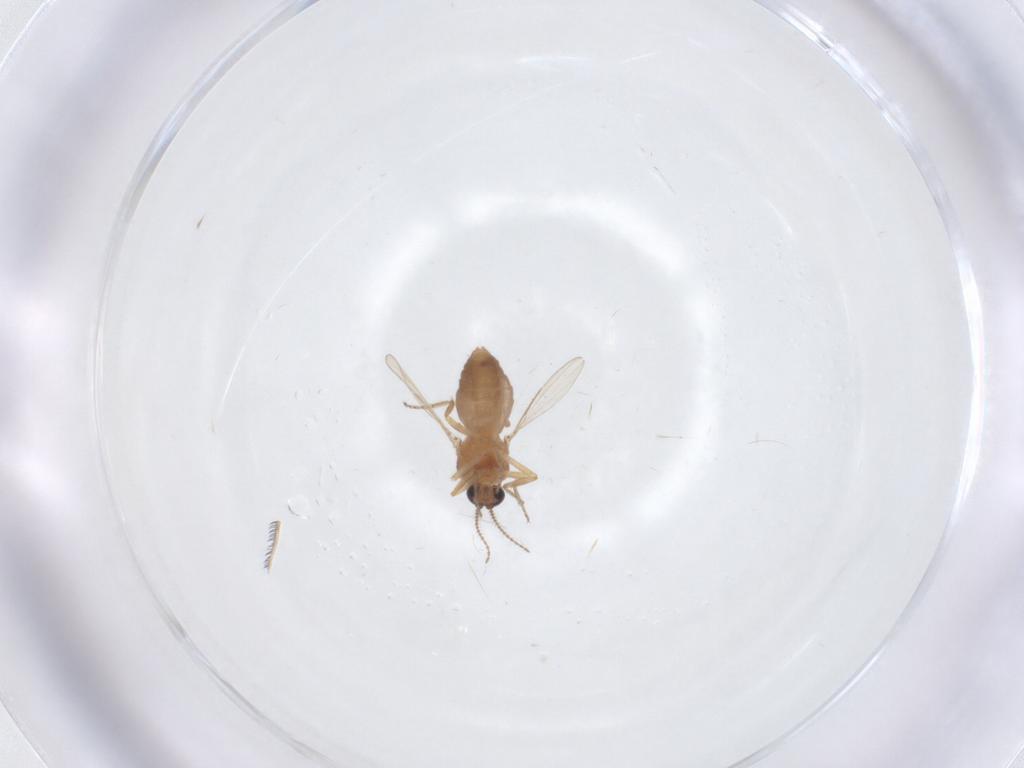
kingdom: Animalia
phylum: Arthropoda
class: Insecta
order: Diptera
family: Ceratopogonidae
